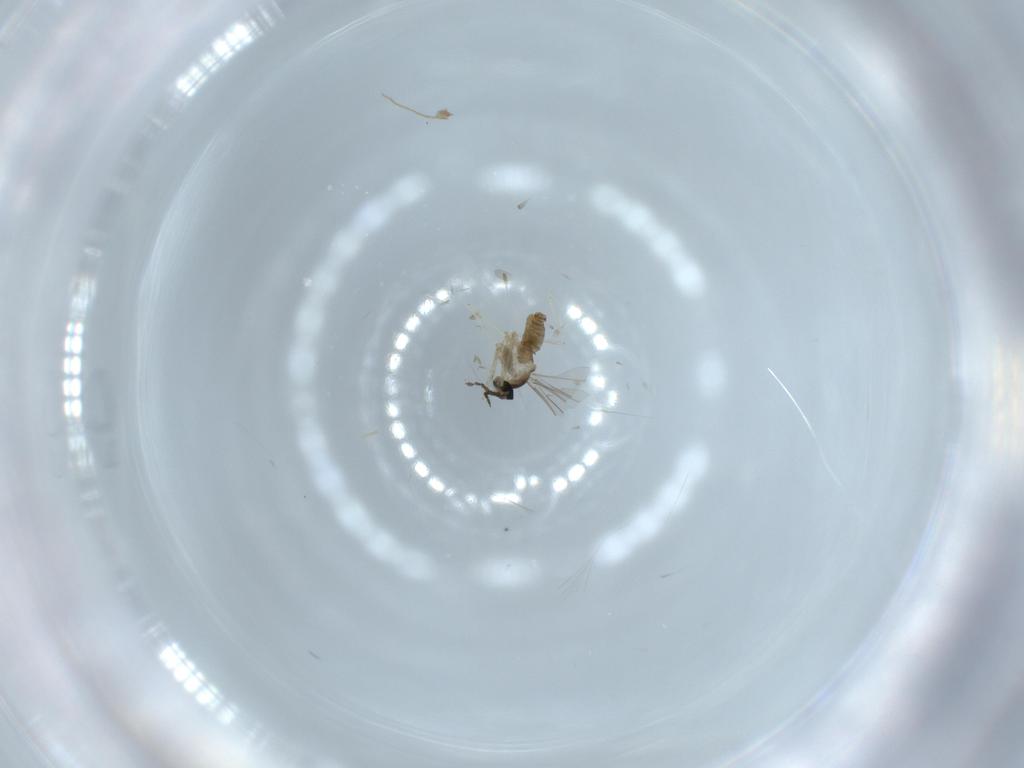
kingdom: Animalia
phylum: Arthropoda
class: Insecta
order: Diptera
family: Cecidomyiidae
